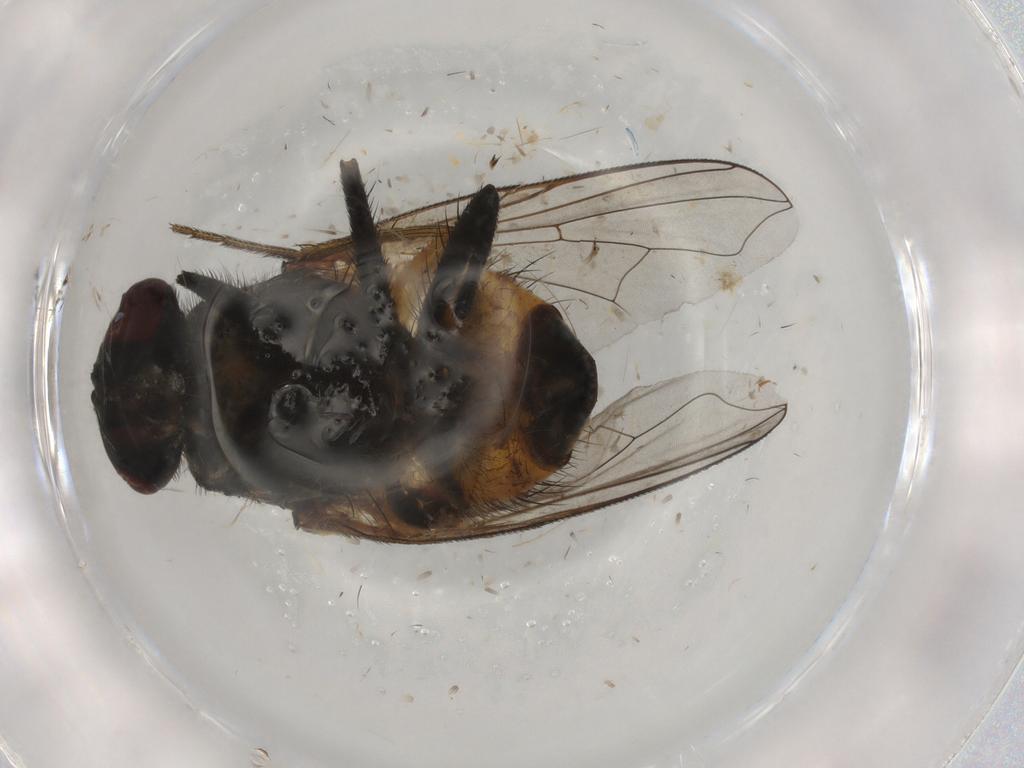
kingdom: Animalia
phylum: Arthropoda
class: Insecta
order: Diptera
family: Muscidae
